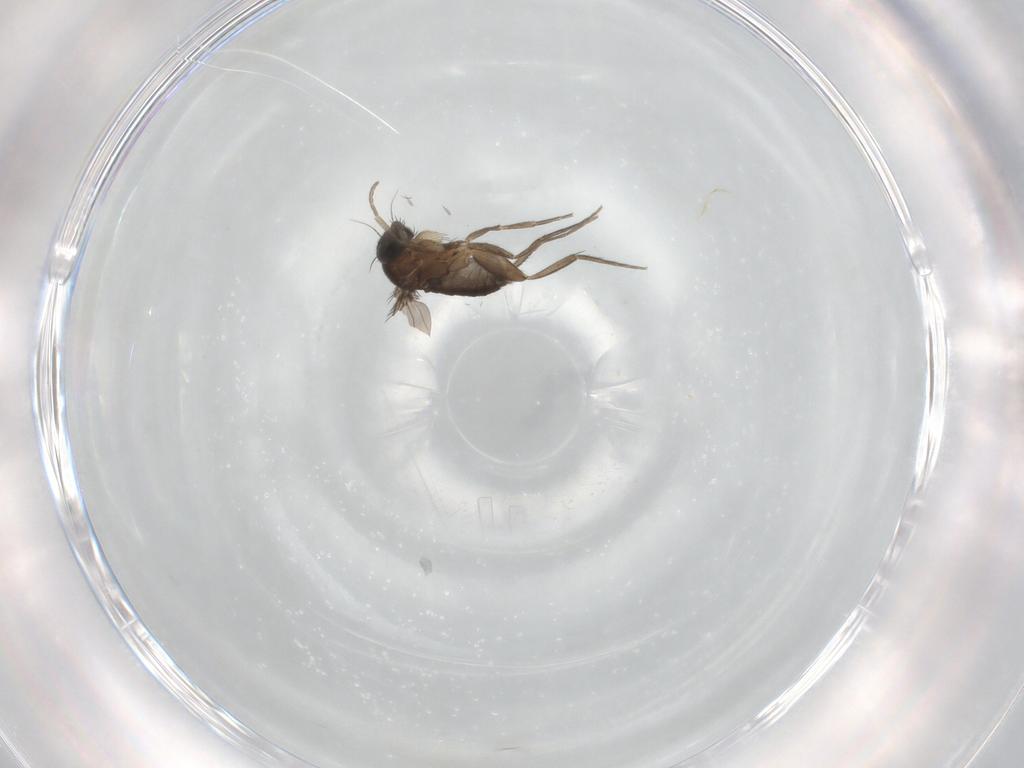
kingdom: Animalia
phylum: Arthropoda
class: Insecta
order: Diptera
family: Phoridae
